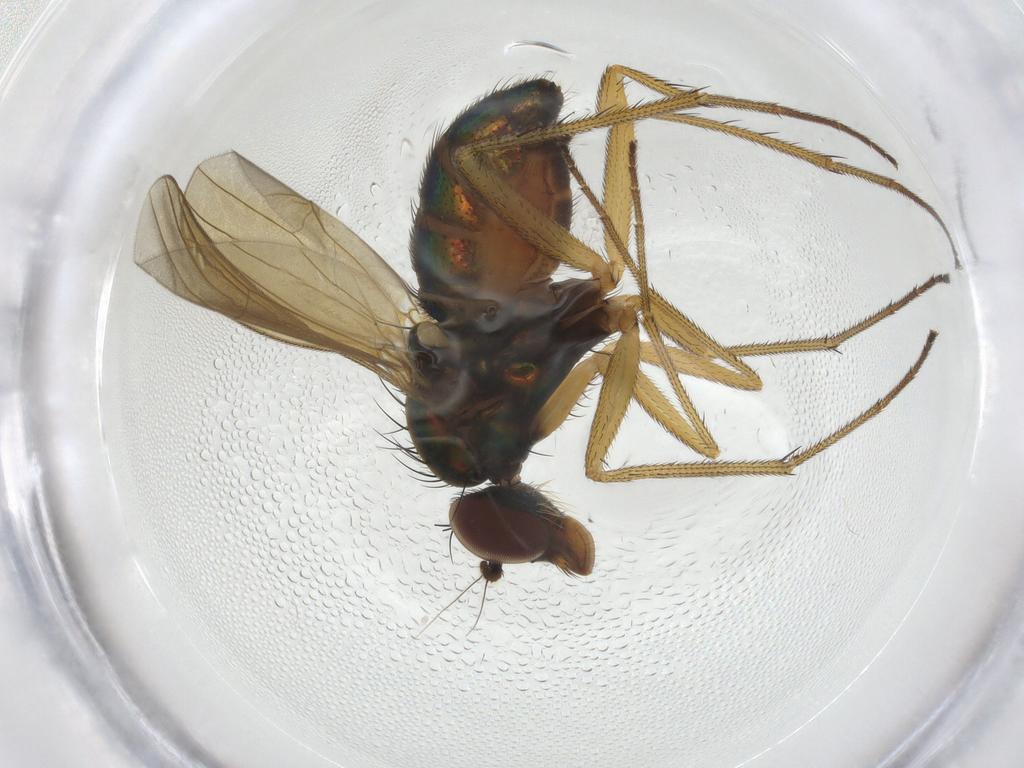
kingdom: Animalia
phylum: Arthropoda
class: Insecta
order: Diptera
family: Dolichopodidae
